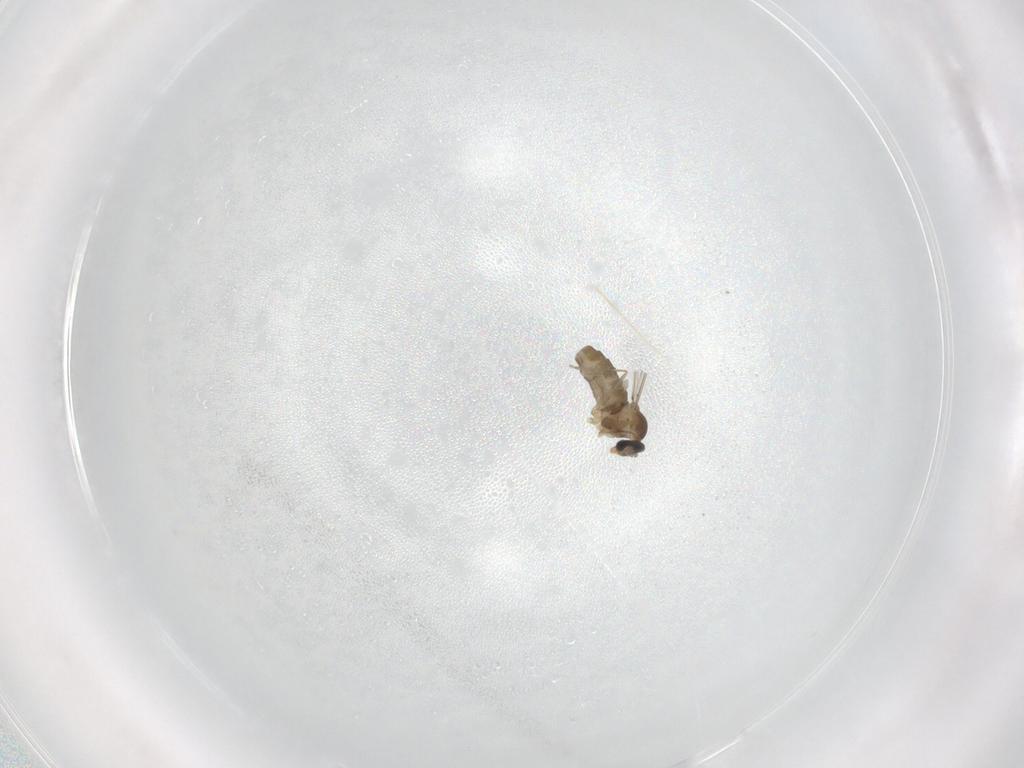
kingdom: Animalia
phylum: Arthropoda
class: Insecta
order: Diptera
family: Cecidomyiidae
